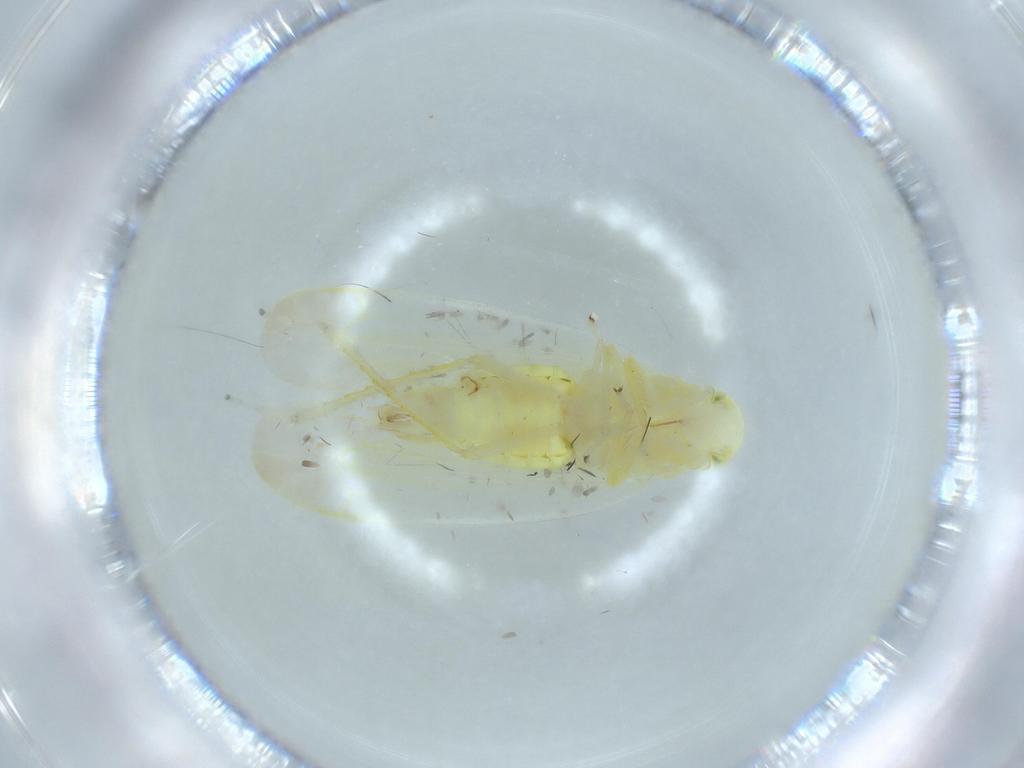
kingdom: Animalia
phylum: Arthropoda
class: Insecta
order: Hemiptera
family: Cicadellidae
